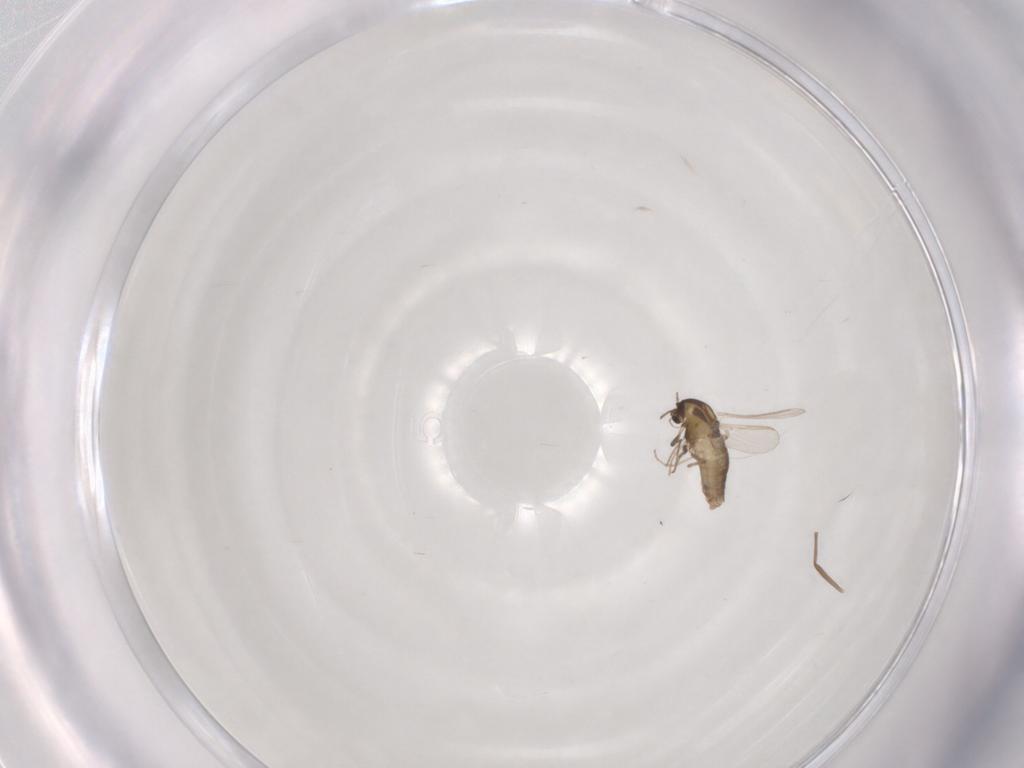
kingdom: Animalia
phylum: Arthropoda
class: Insecta
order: Diptera
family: Chironomidae
